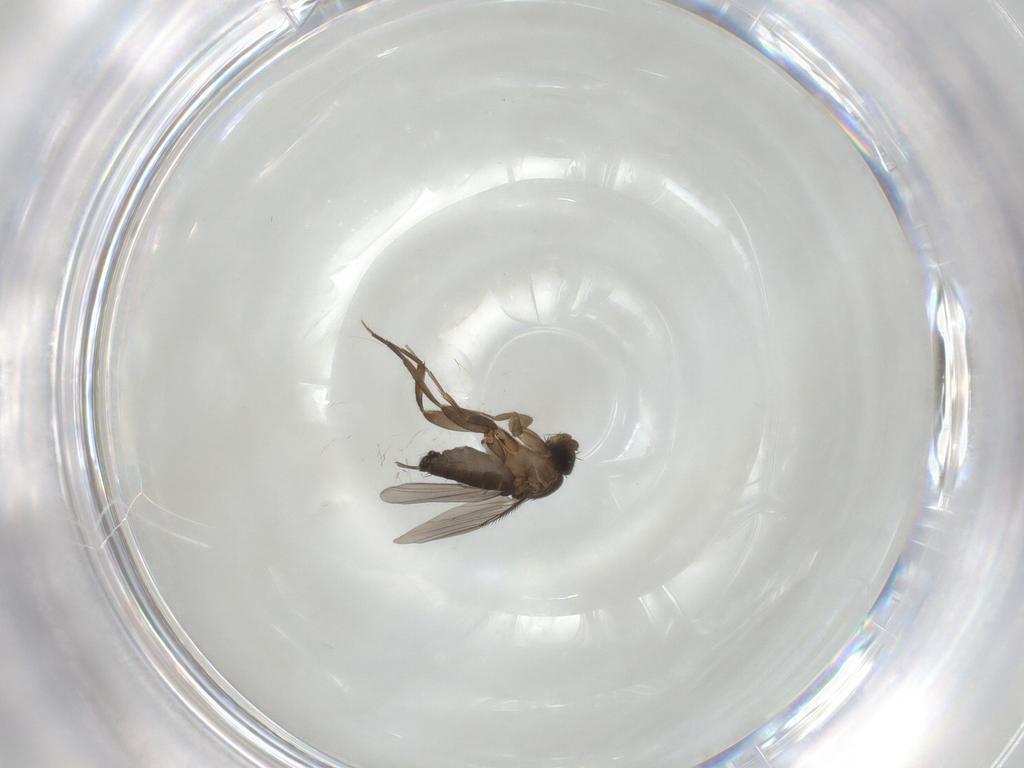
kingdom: Animalia
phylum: Arthropoda
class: Insecta
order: Diptera
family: Phoridae
